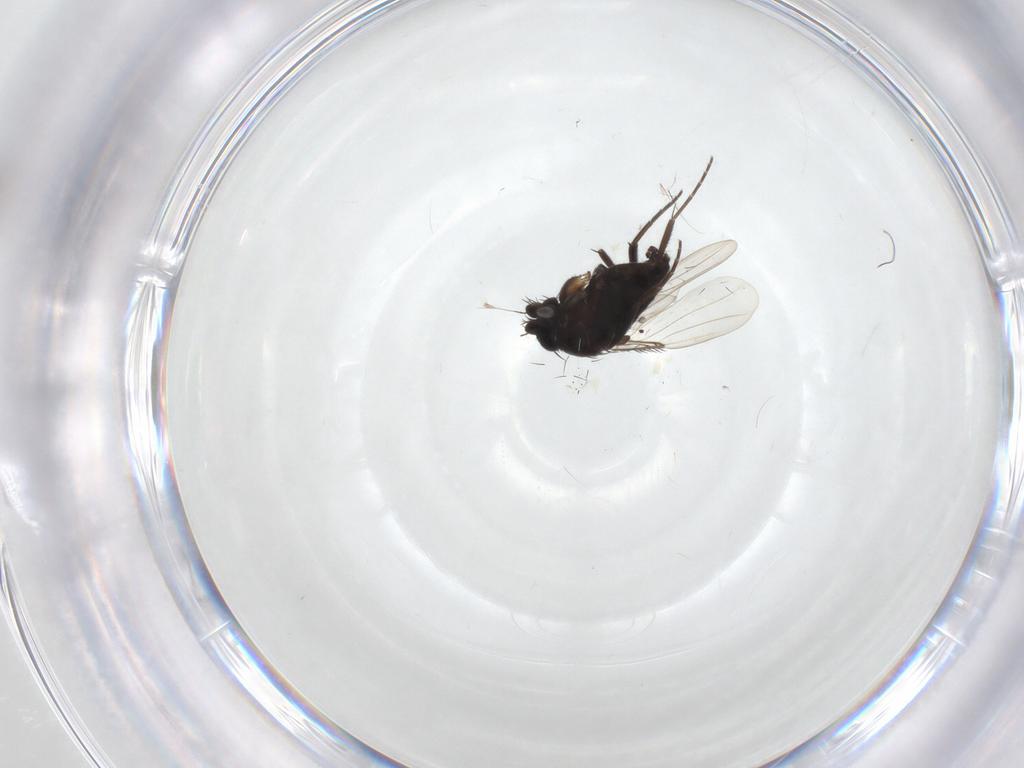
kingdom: Animalia
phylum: Arthropoda
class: Insecta
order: Diptera
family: Phoridae
